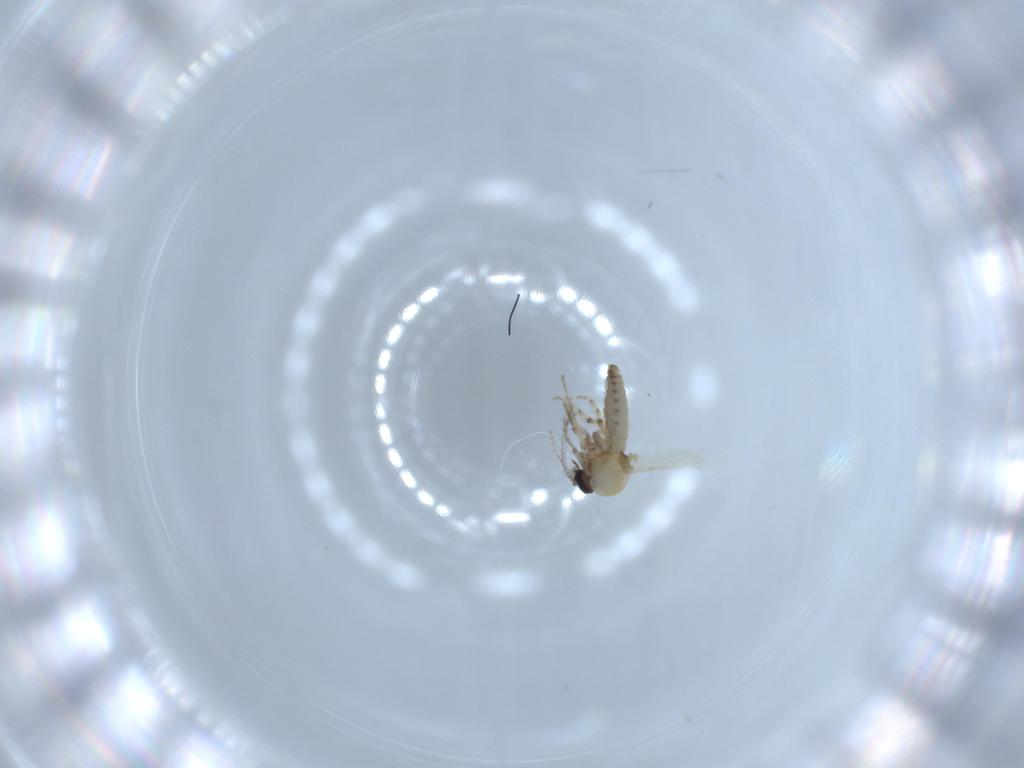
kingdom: Animalia
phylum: Arthropoda
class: Insecta
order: Diptera
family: Ceratopogonidae
